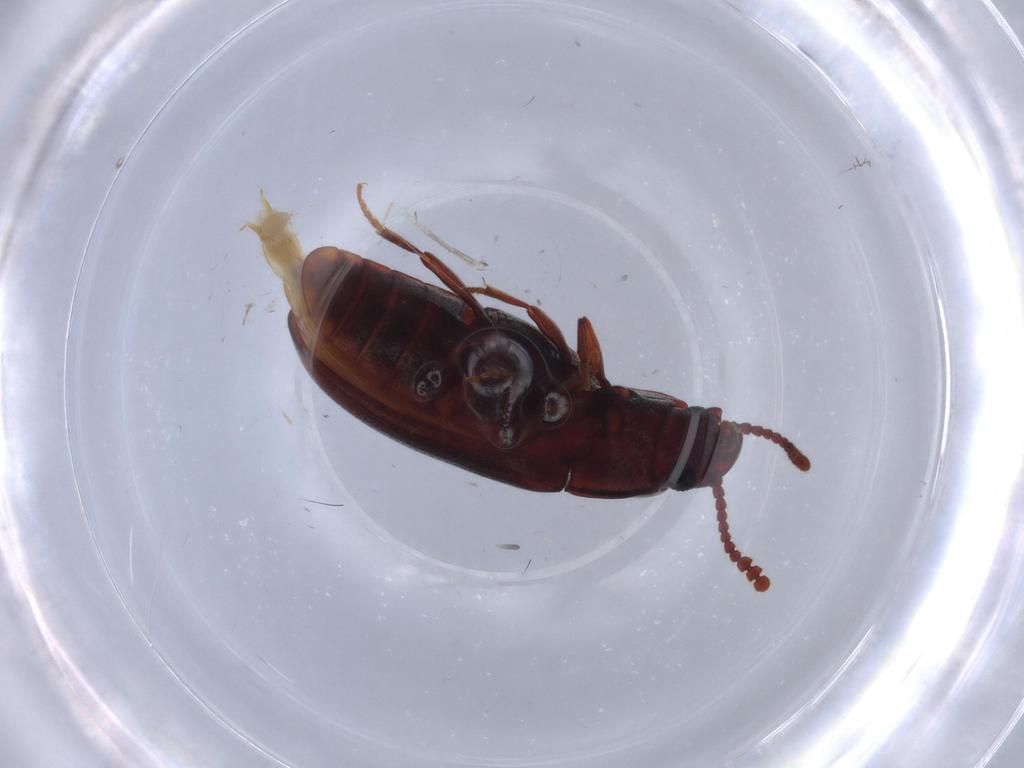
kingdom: Animalia
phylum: Arthropoda
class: Insecta
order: Coleoptera
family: Erotylidae
